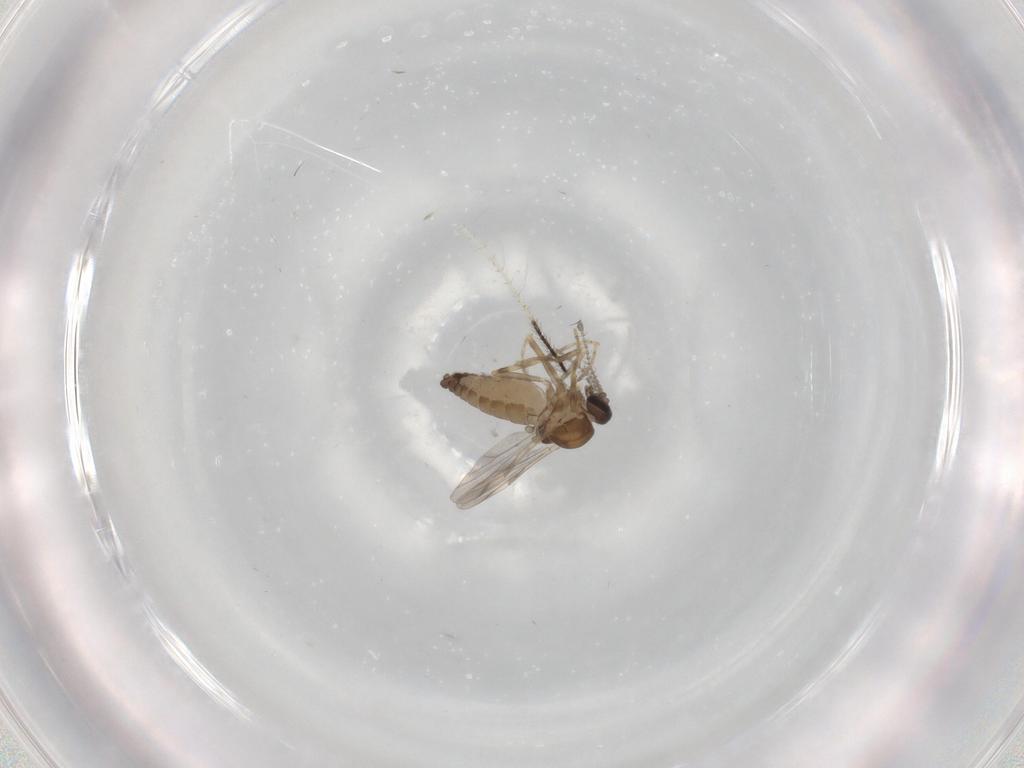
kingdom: Animalia
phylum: Arthropoda
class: Insecta
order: Diptera
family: Ceratopogonidae
